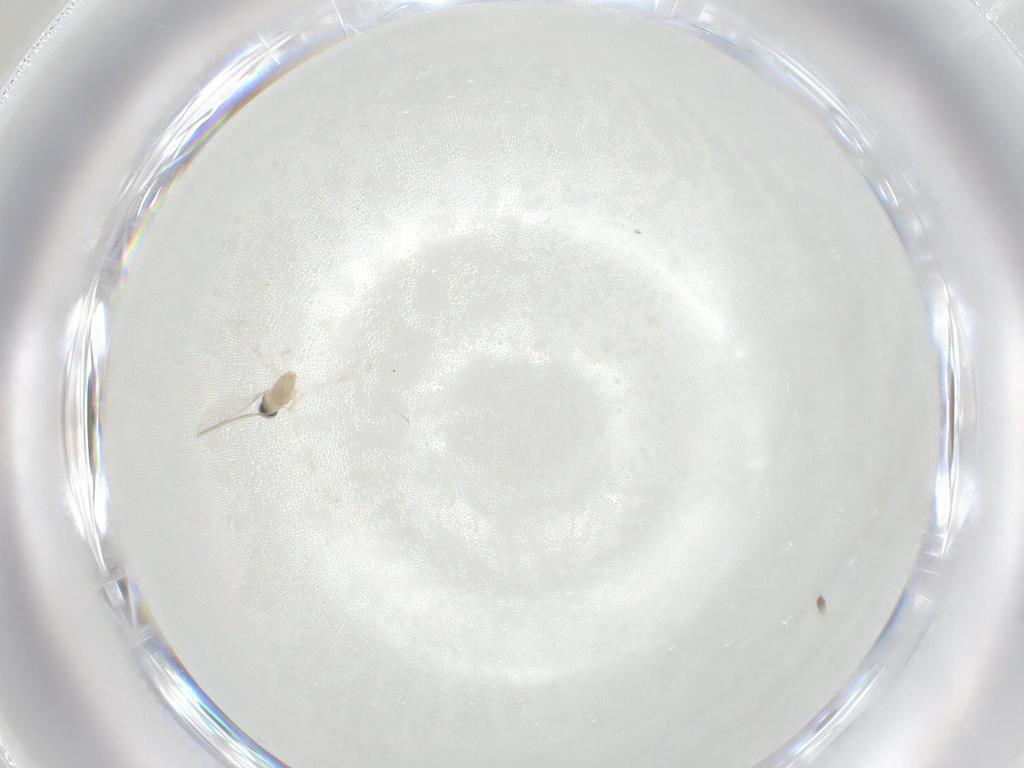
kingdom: Animalia
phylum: Arthropoda
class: Insecta
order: Diptera
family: Cecidomyiidae
